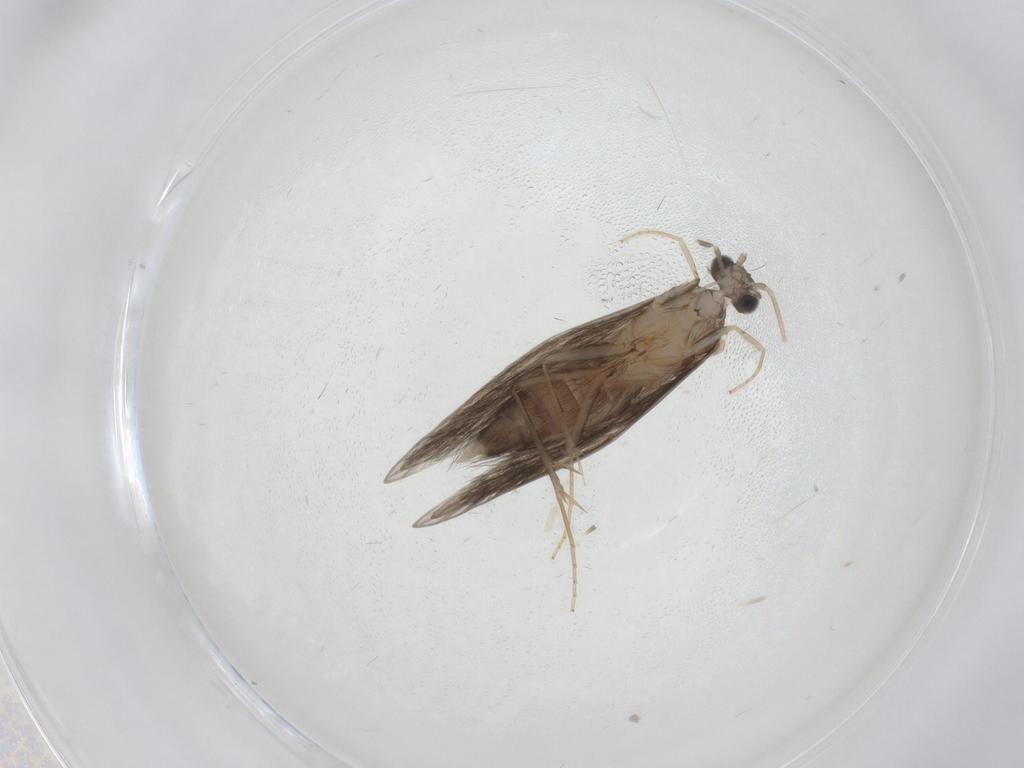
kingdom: Animalia
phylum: Arthropoda
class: Insecta
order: Trichoptera
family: Hydroptilidae
